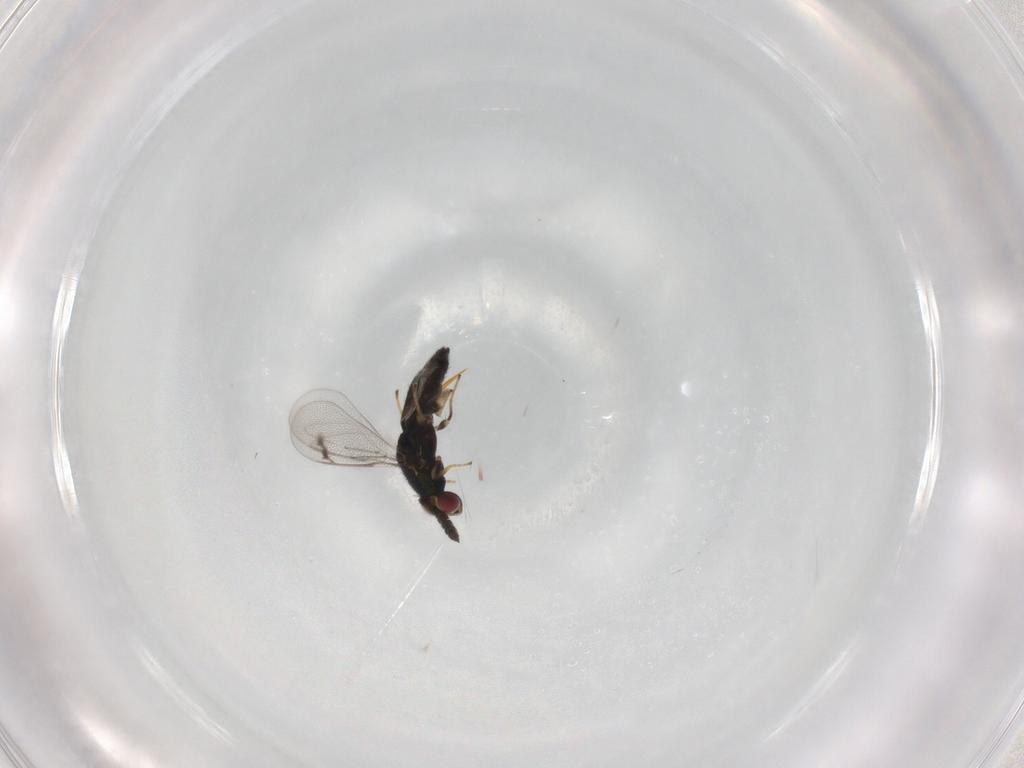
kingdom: Animalia
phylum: Arthropoda
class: Insecta
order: Hymenoptera
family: Eulophidae
